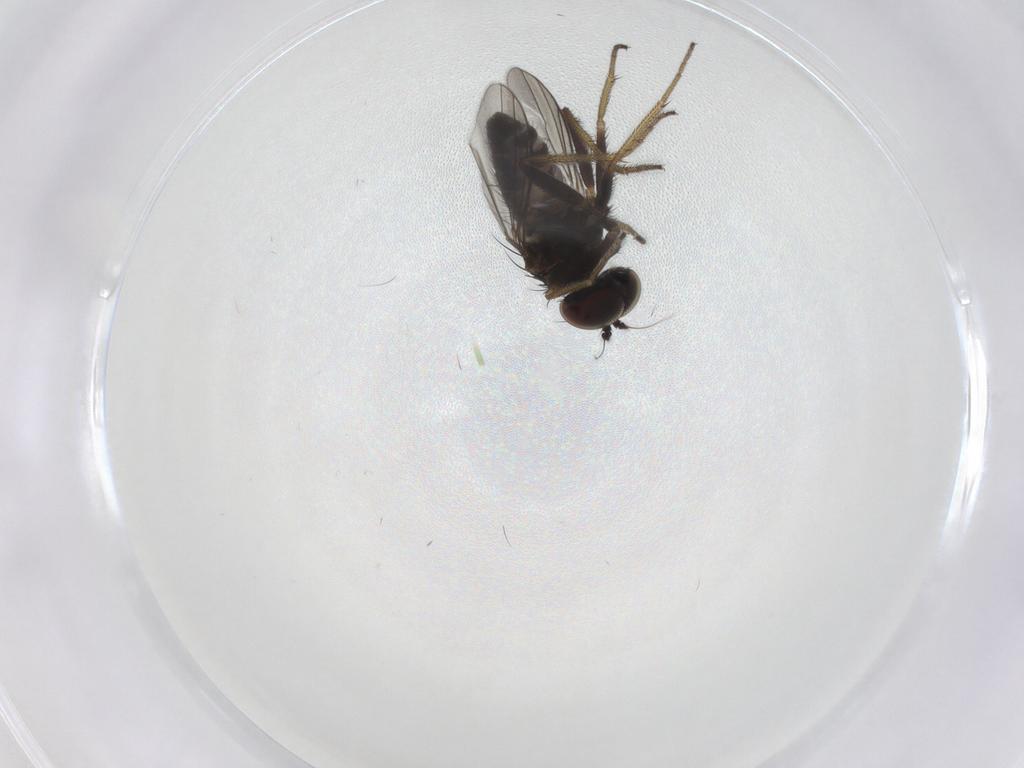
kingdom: Animalia
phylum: Arthropoda
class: Insecta
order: Diptera
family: Dolichopodidae
